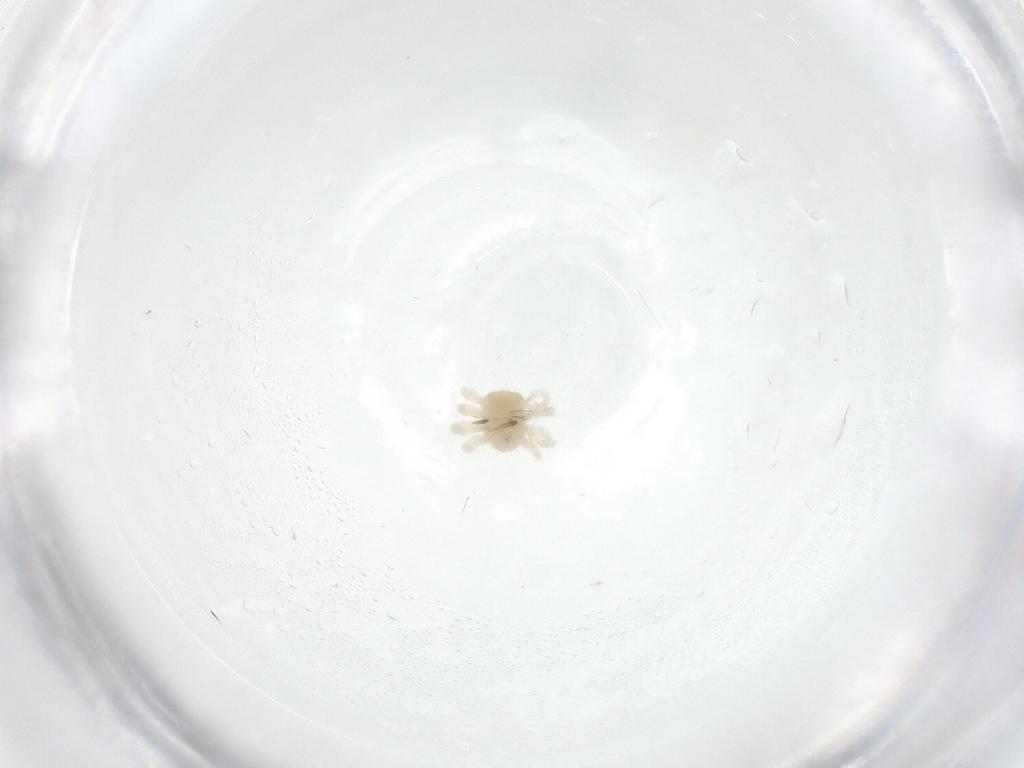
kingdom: Animalia
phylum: Arthropoda
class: Arachnida
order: Trombidiformes
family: Anystidae
